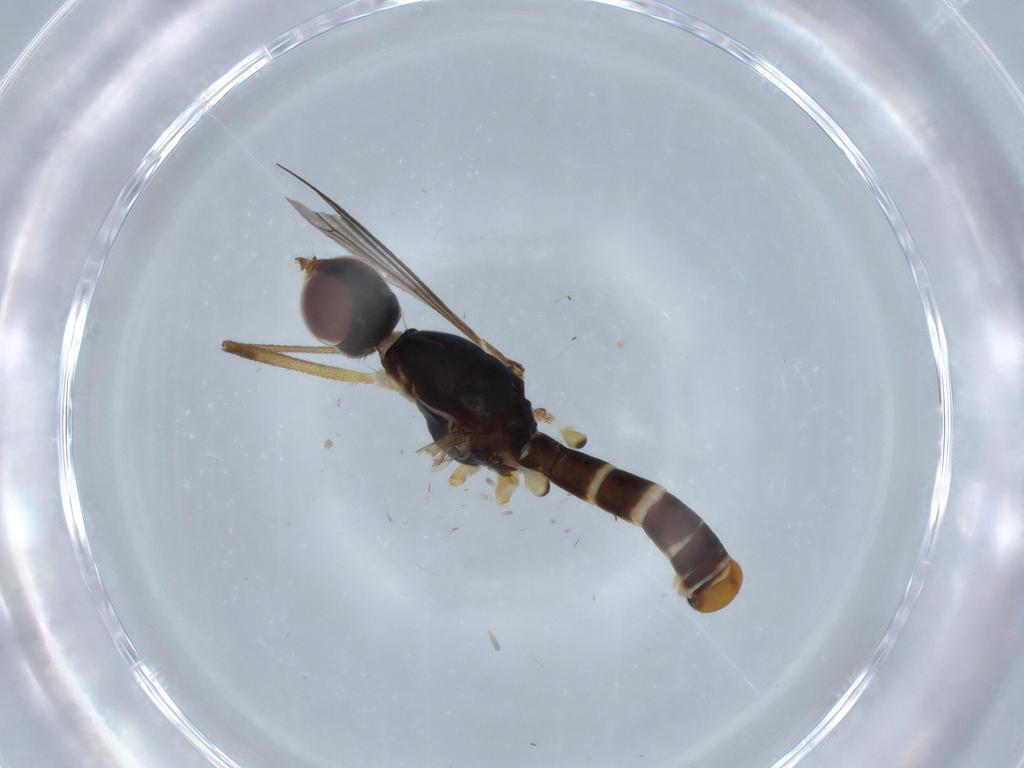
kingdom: Animalia
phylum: Arthropoda
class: Insecta
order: Diptera
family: Micropezidae
